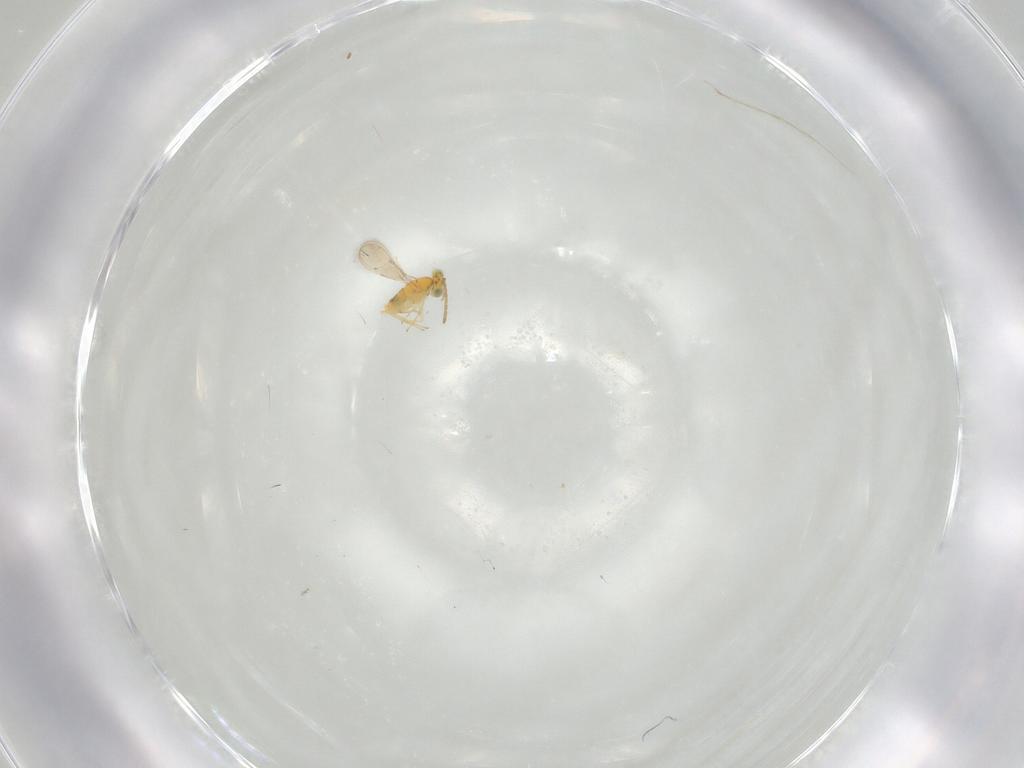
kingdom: Animalia
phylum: Arthropoda
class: Insecta
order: Hymenoptera
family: Aphelinidae
